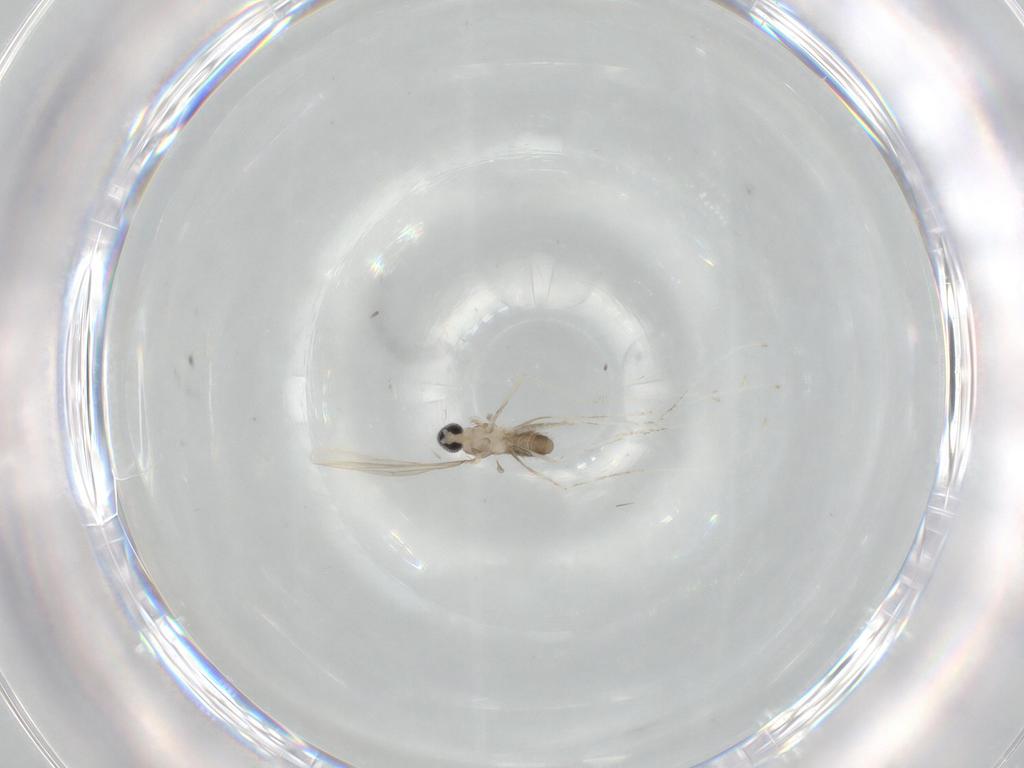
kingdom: Animalia
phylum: Arthropoda
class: Insecta
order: Diptera
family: Cecidomyiidae
